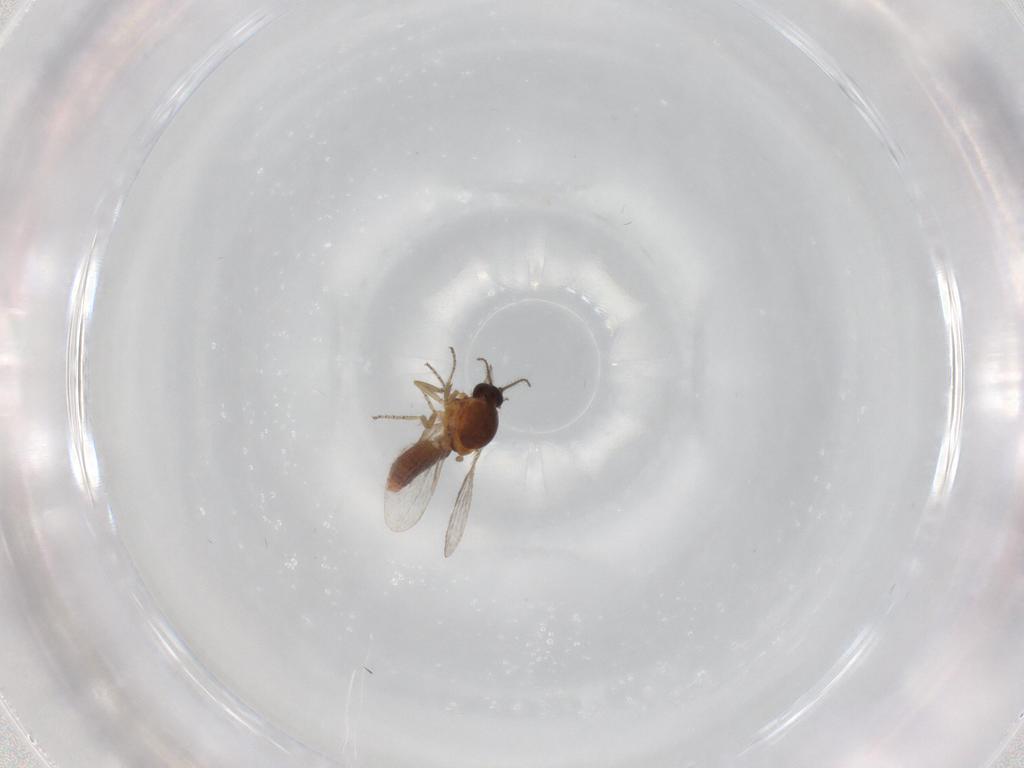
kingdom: Animalia
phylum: Arthropoda
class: Insecta
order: Diptera
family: Ceratopogonidae
